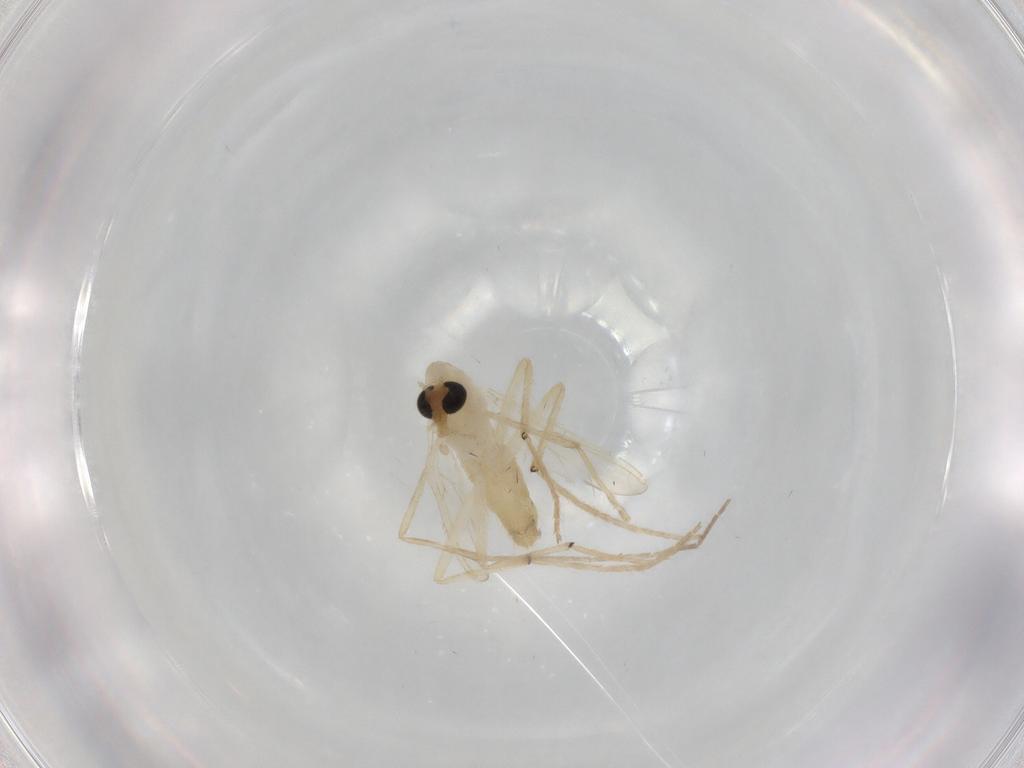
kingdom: Animalia
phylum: Arthropoda
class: Insecta
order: Diptera
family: Chironomidae
